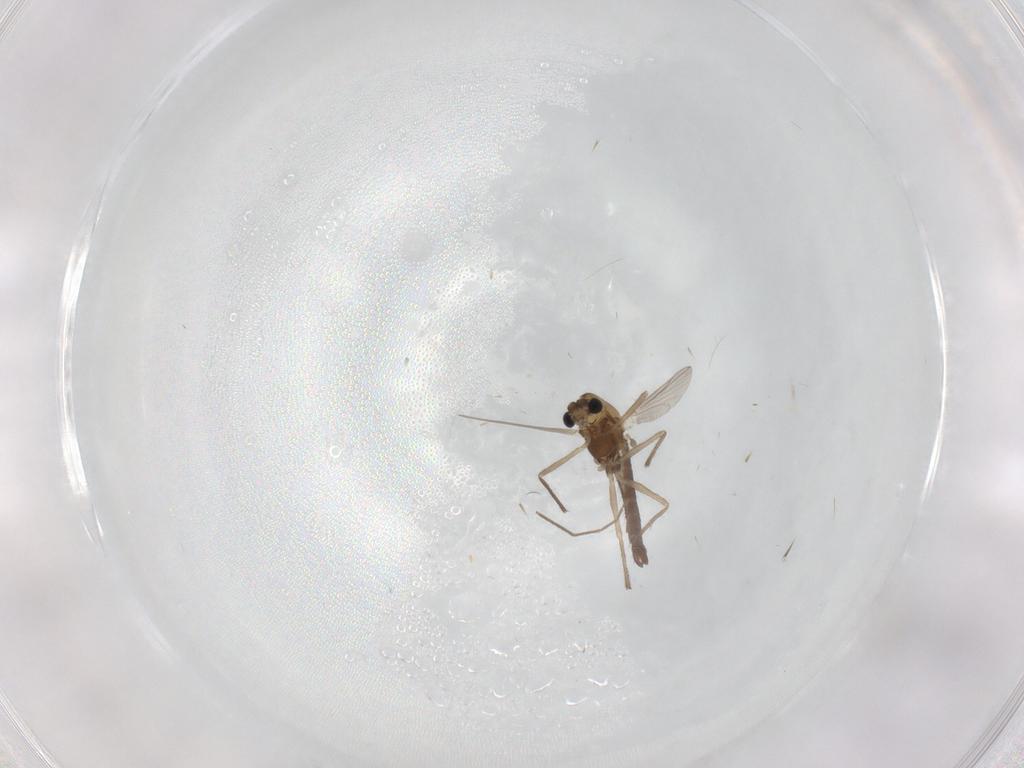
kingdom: Animalia
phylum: Arthropoda
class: Insecta
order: Diptera
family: Chironomidae
